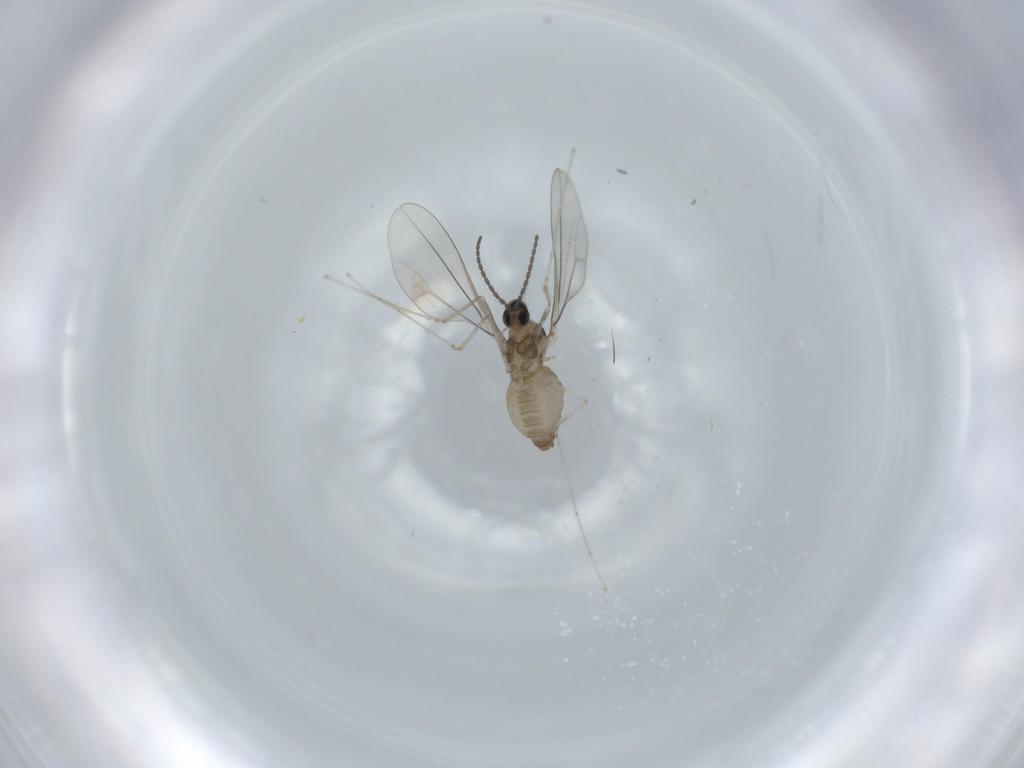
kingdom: Animalia
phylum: Arthropoda
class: Insecta
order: Diptera
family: Cecidomyiidae
